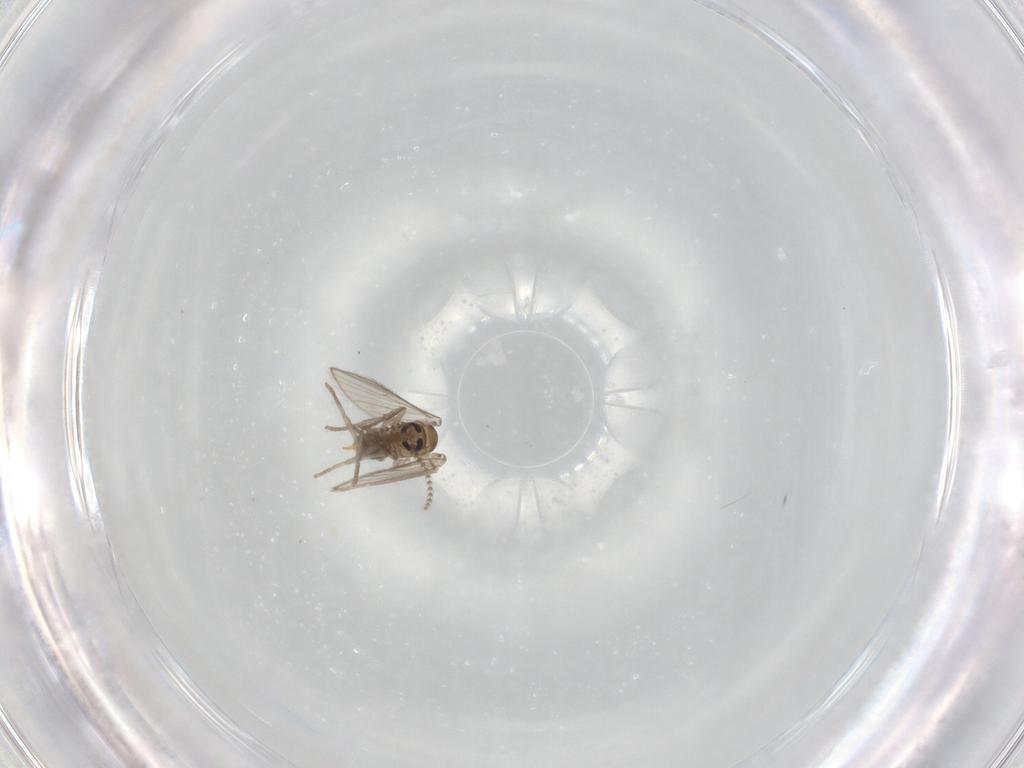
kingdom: Animalia
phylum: Arthropoda
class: Insecta
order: Diptera
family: Psychodidae
